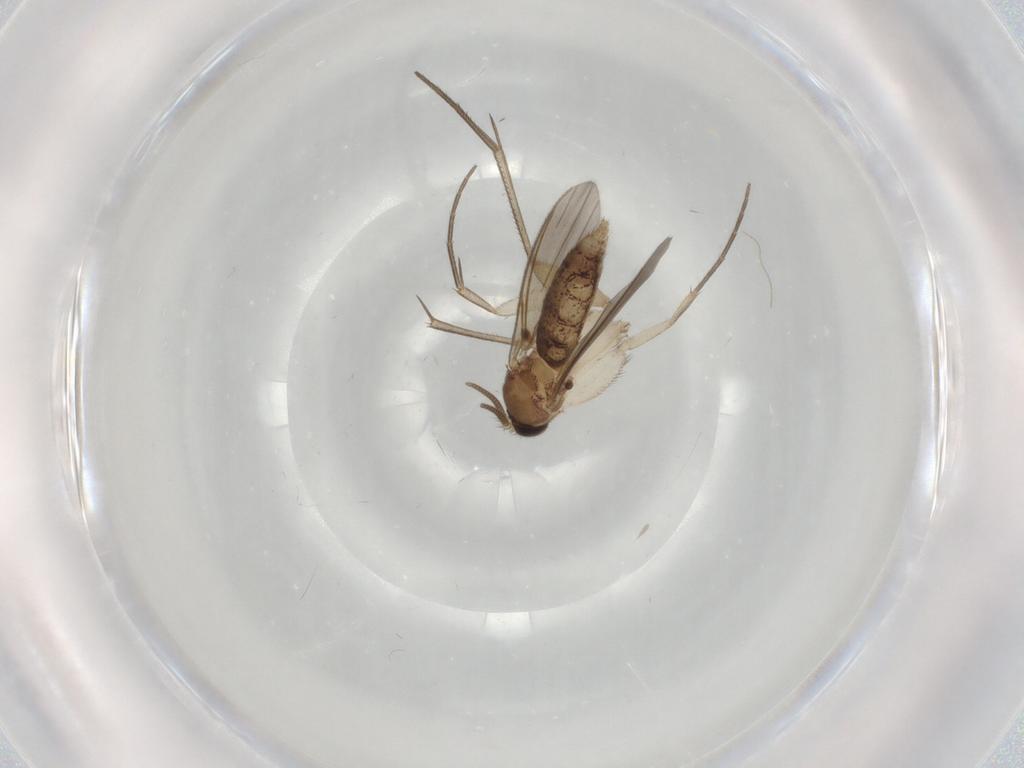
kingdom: Animalia
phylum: Arthropoda
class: Insecta
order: Diptera
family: Mycetophilidae
